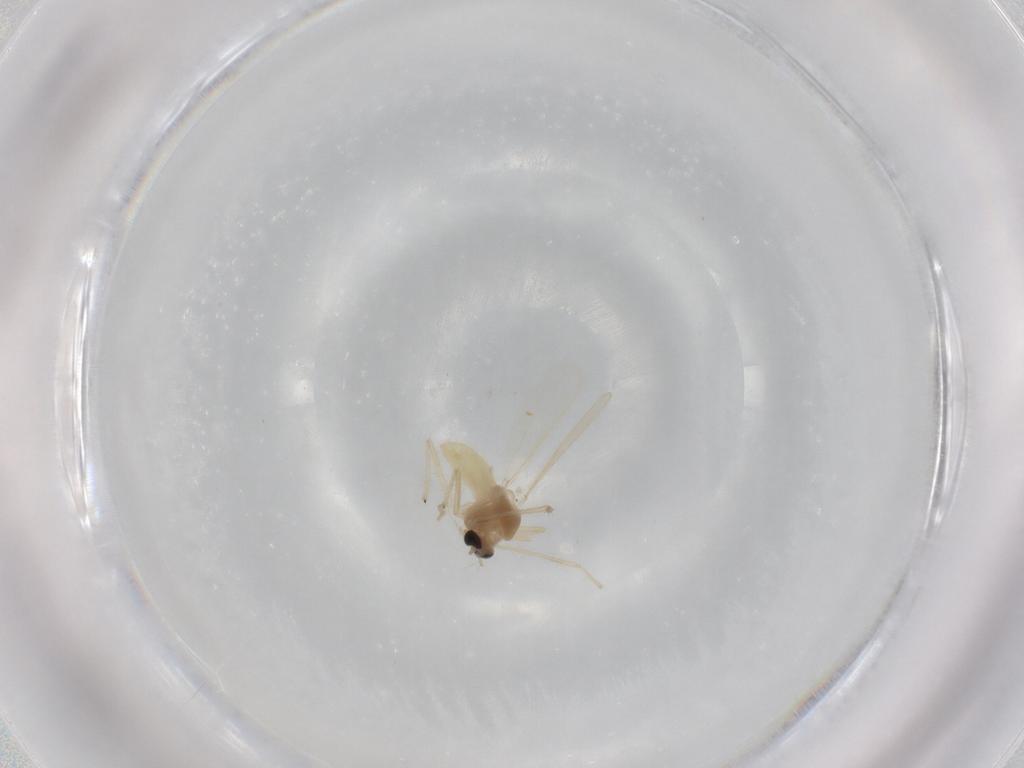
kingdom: Animalia
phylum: Arthropoda
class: Insecta
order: Diptera
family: Chironomidae
